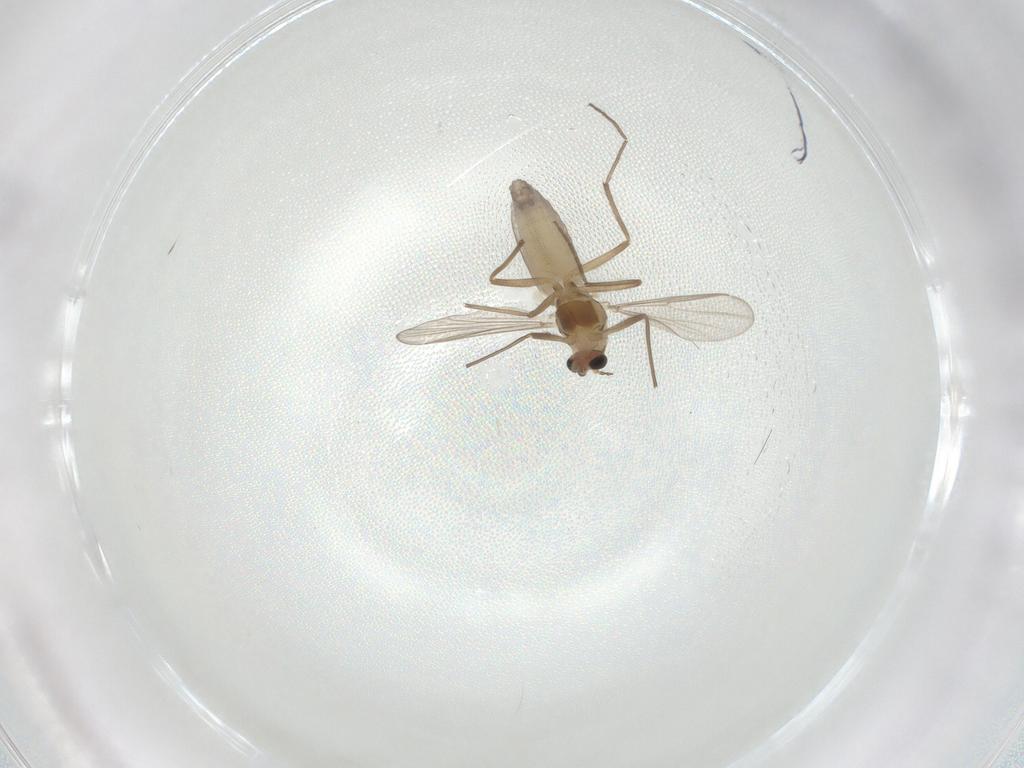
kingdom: Animalia
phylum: Arthropoda
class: Insecta
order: Diptera
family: Chironomidae
